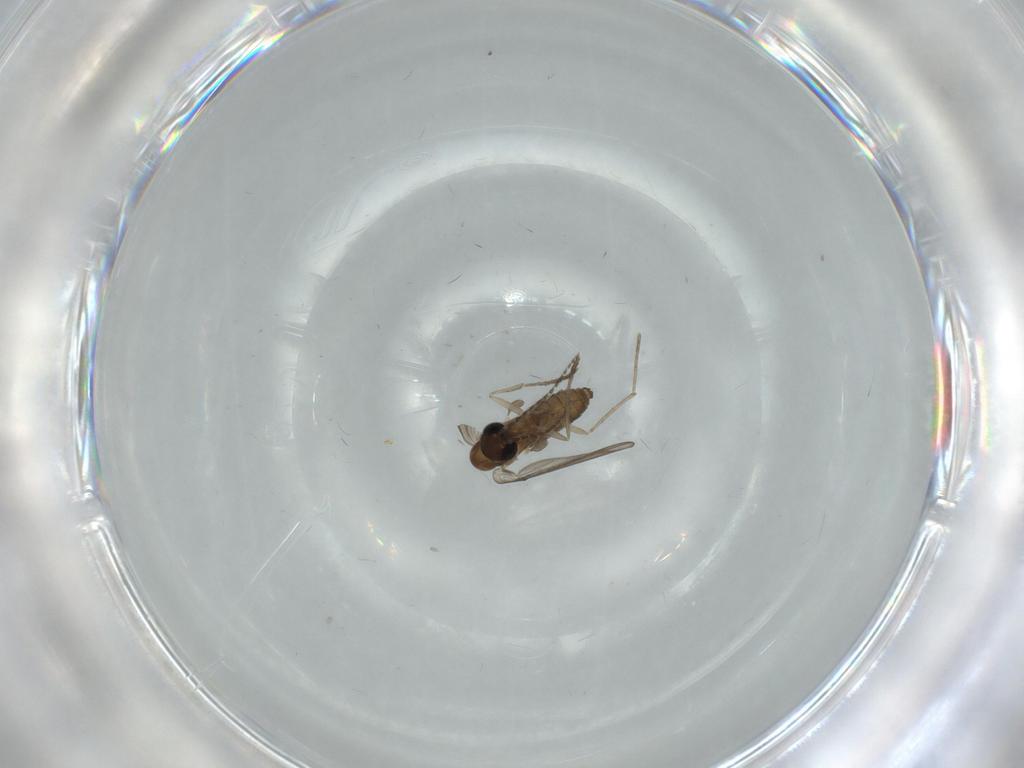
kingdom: Animalia
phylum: Arthropoda
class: Insecta
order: Diptera
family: Psychodidae
